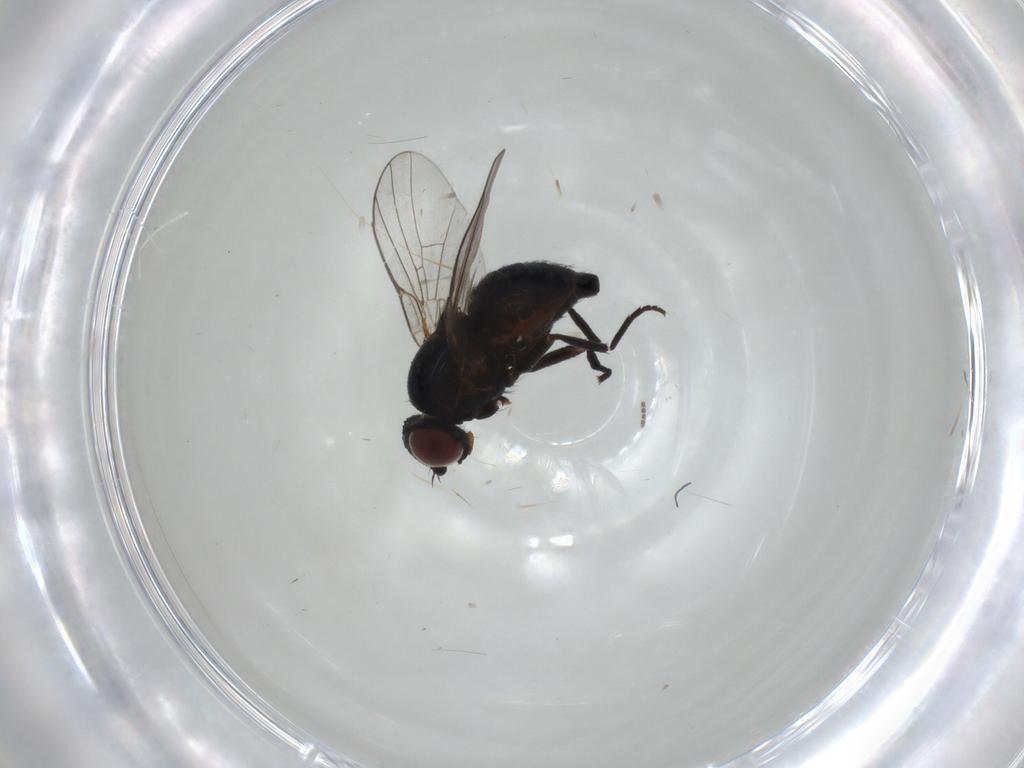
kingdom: Animalia
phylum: Arthropoda
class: Insecta
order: Diptera
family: Agromyzidae
